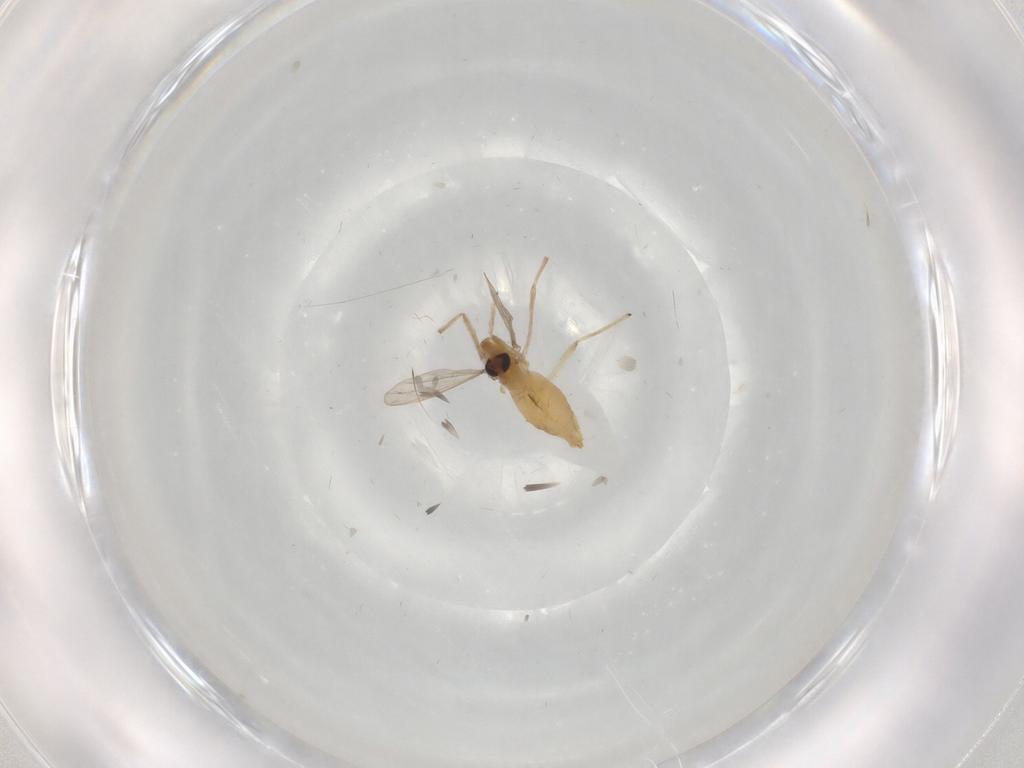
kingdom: Animalia
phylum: Arthropoda
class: Insecta
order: Diptera
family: Chironomidae
